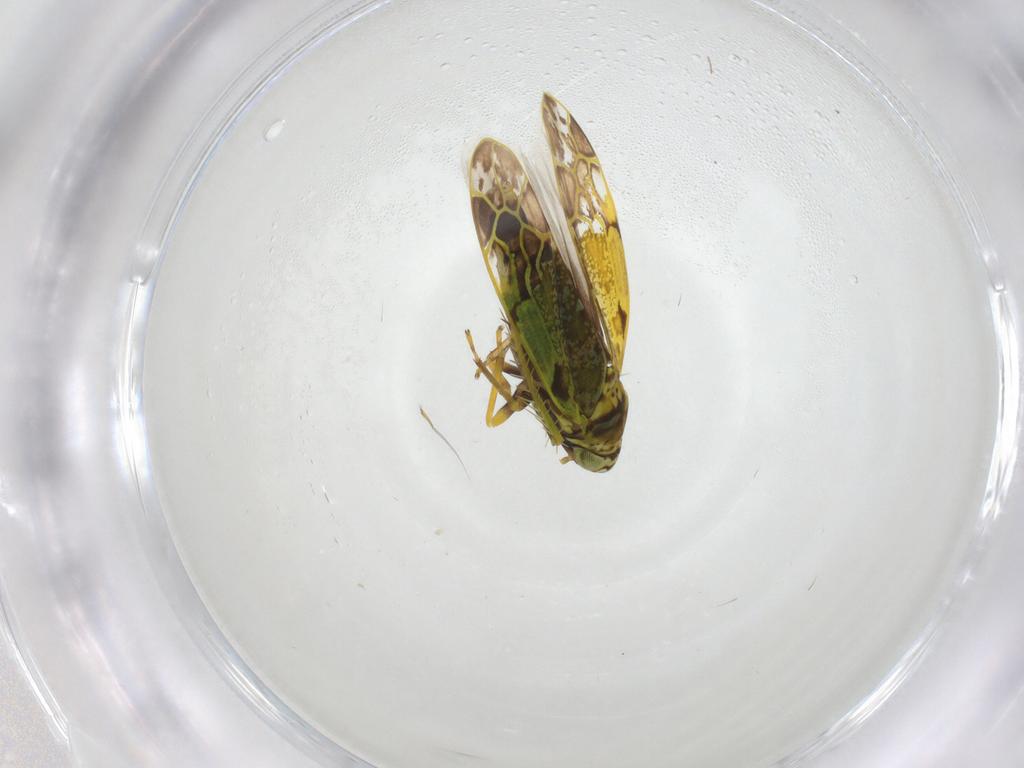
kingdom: Animalia
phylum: Arthropoda
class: Insecta
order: Hemiptera
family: Cicadellidae
